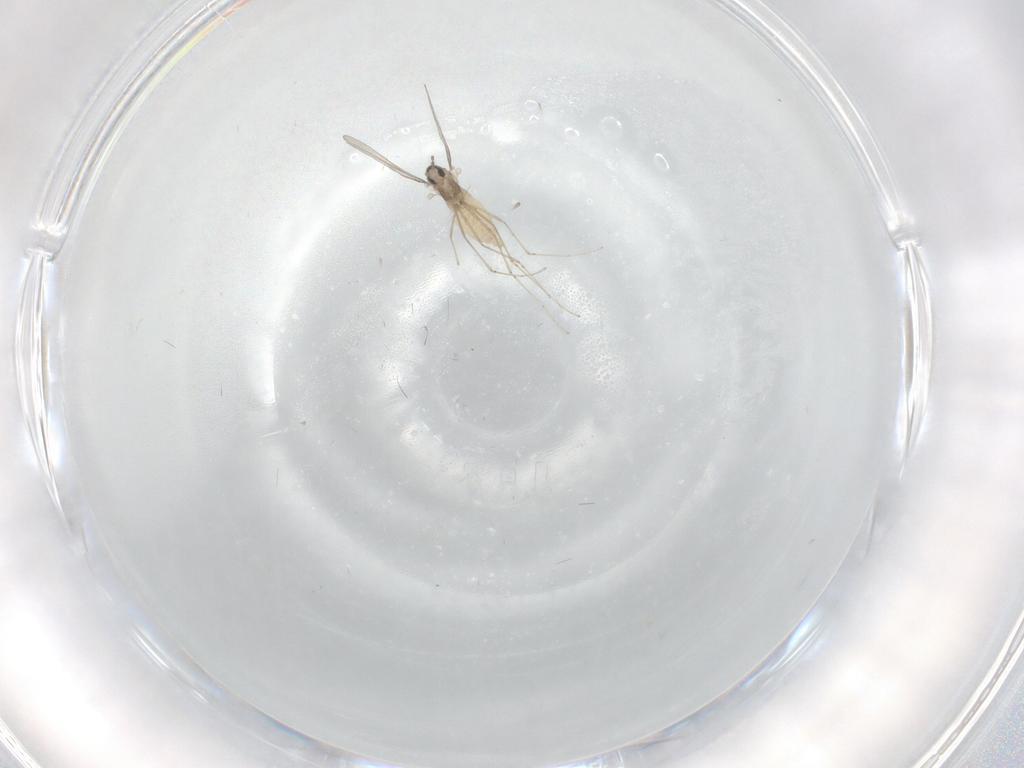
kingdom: Animalia
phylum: Arthropoda
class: Insecta
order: Diptera
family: Cecidomyiidae
